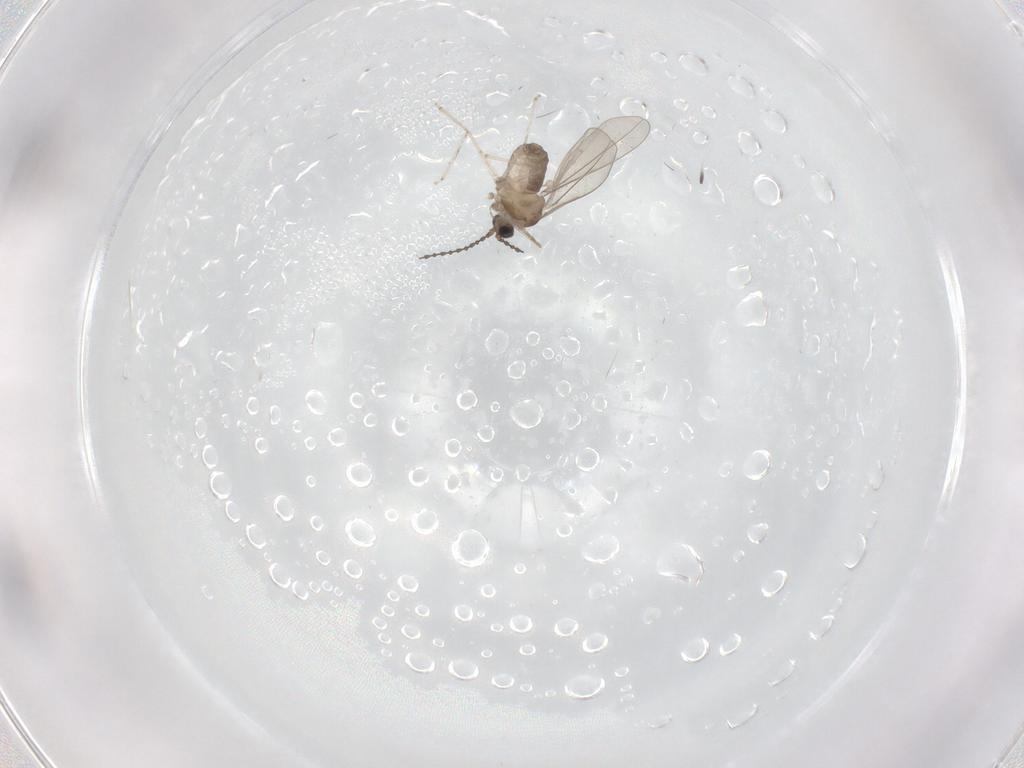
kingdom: Animalia
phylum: Arthropoda
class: Insecta
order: Diptera
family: Cecidomyiidae
